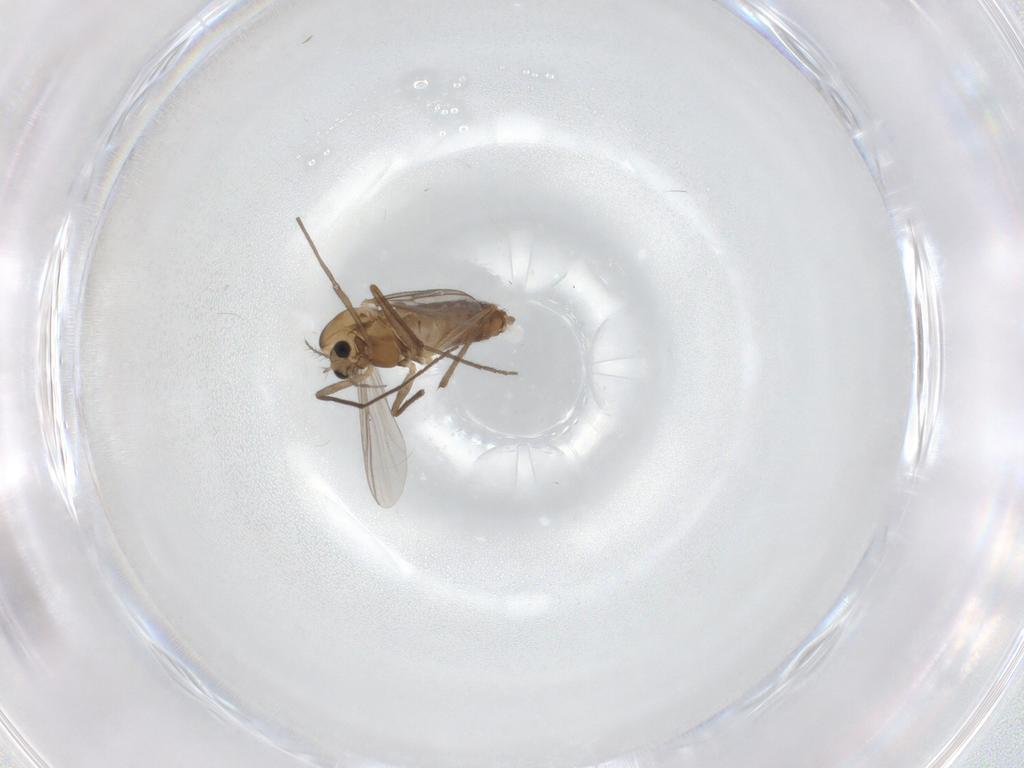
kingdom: Animalia
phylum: Arthropoda
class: Insecta
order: Diptera
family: Chironomidae
